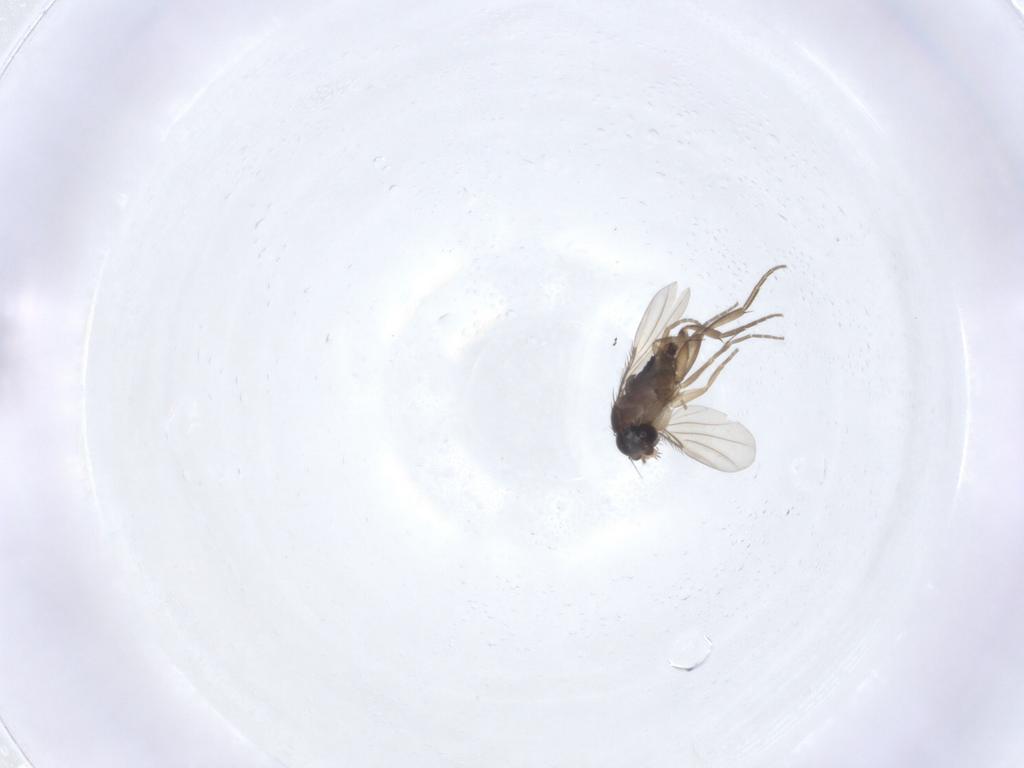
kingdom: Animalia
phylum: Arthropoda
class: Insecta
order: Diptera
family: Phoridae
